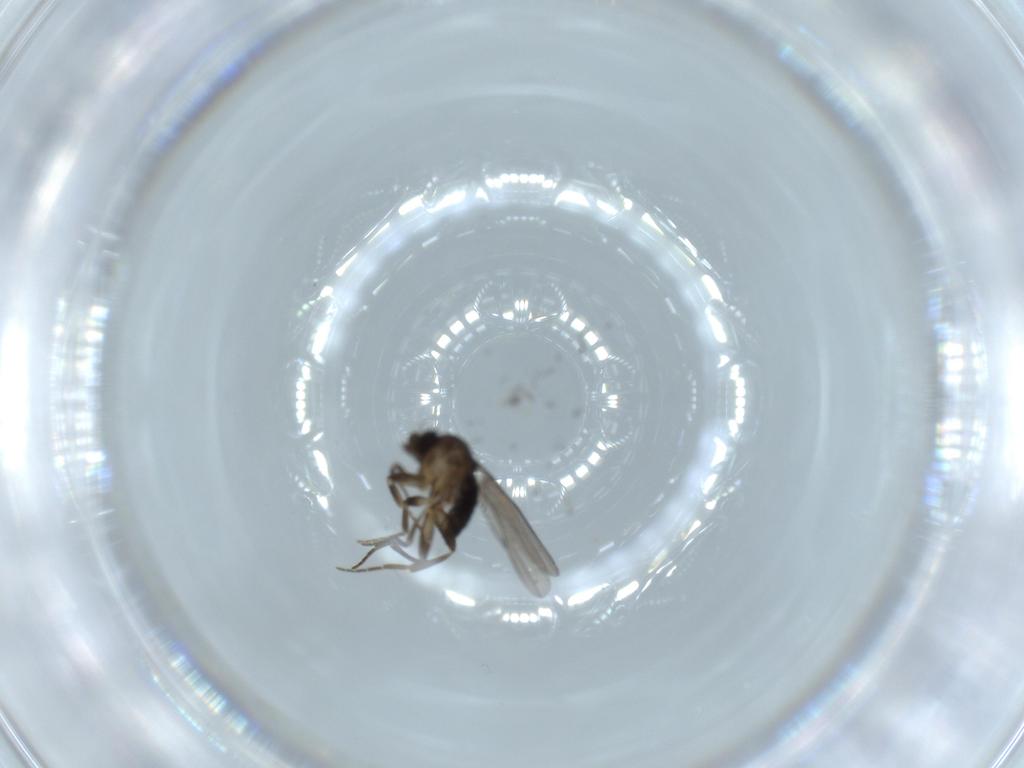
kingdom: Animalia
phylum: Arthropoda
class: Insecta
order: Diptera
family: Phoridae
